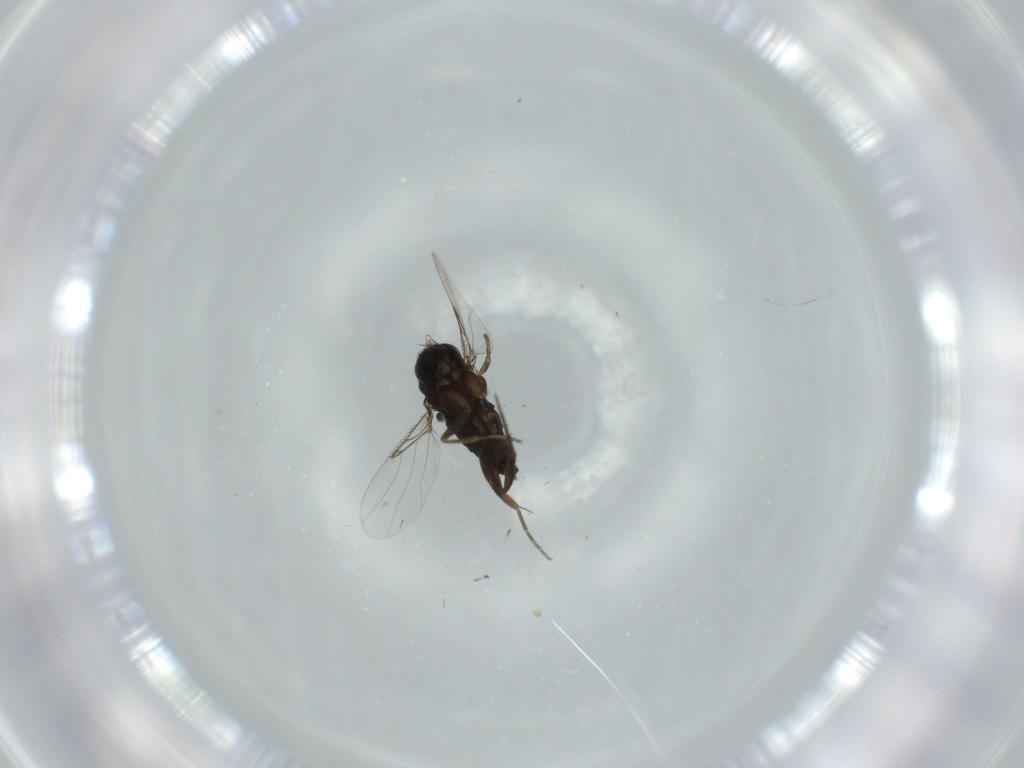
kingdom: Animalia
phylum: Arthropoda
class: Insecta
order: Diptera
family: Phoridae
